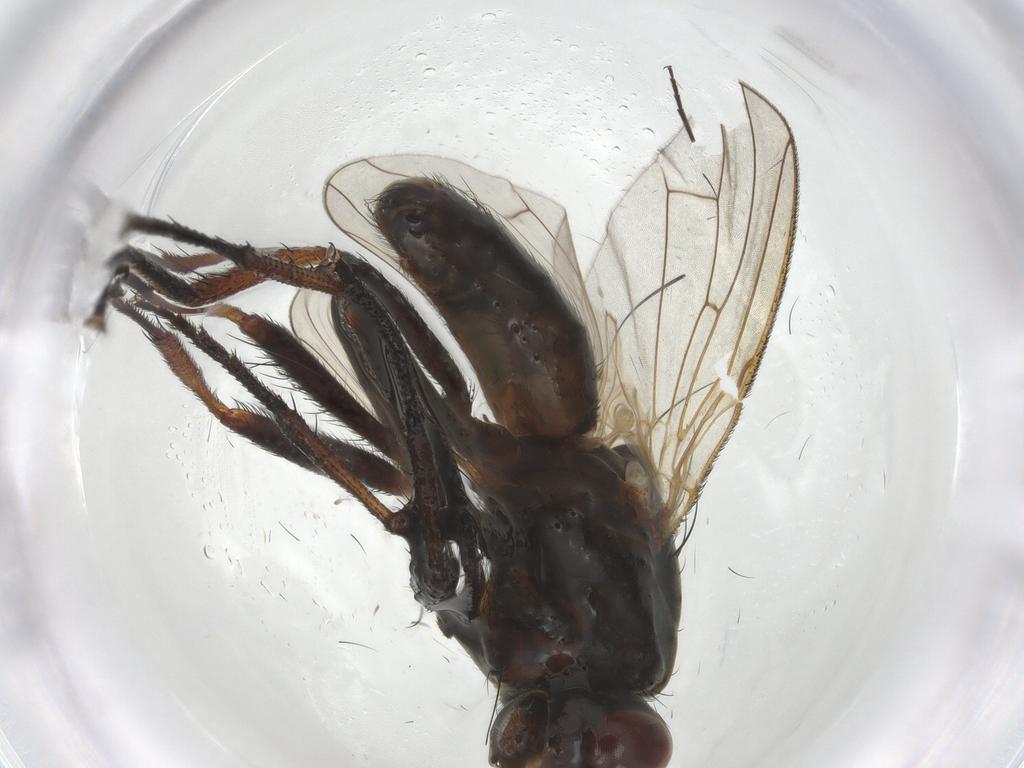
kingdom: Animalia
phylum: Arthropoda
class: Insecta
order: Diptera
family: Anthomyiidae
